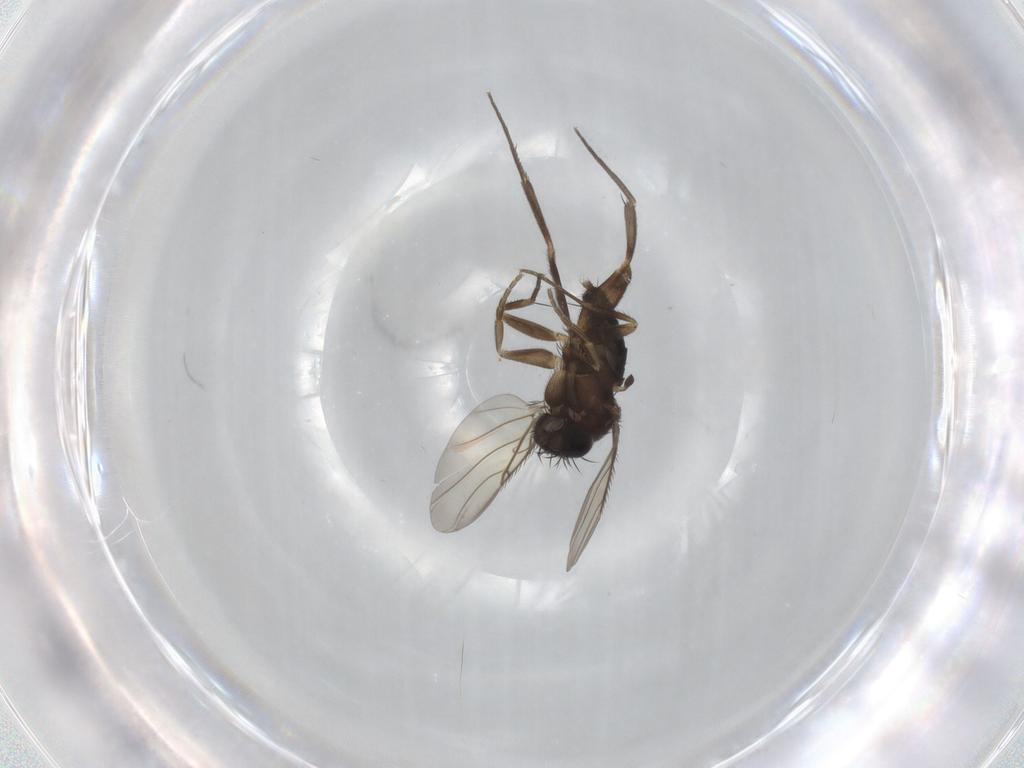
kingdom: Animalia
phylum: Arthropoda
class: Insecta
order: Diptera
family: Phoridae
